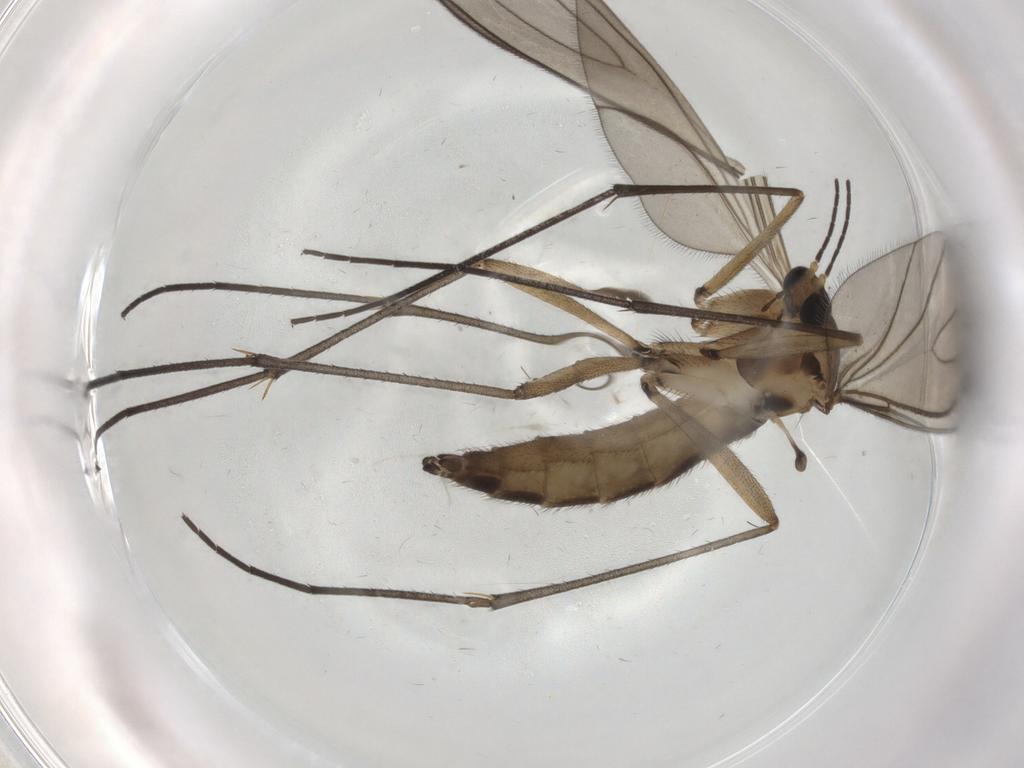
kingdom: Animalia
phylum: Arthropoda
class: Insecta
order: Diptera
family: Sciaridae
